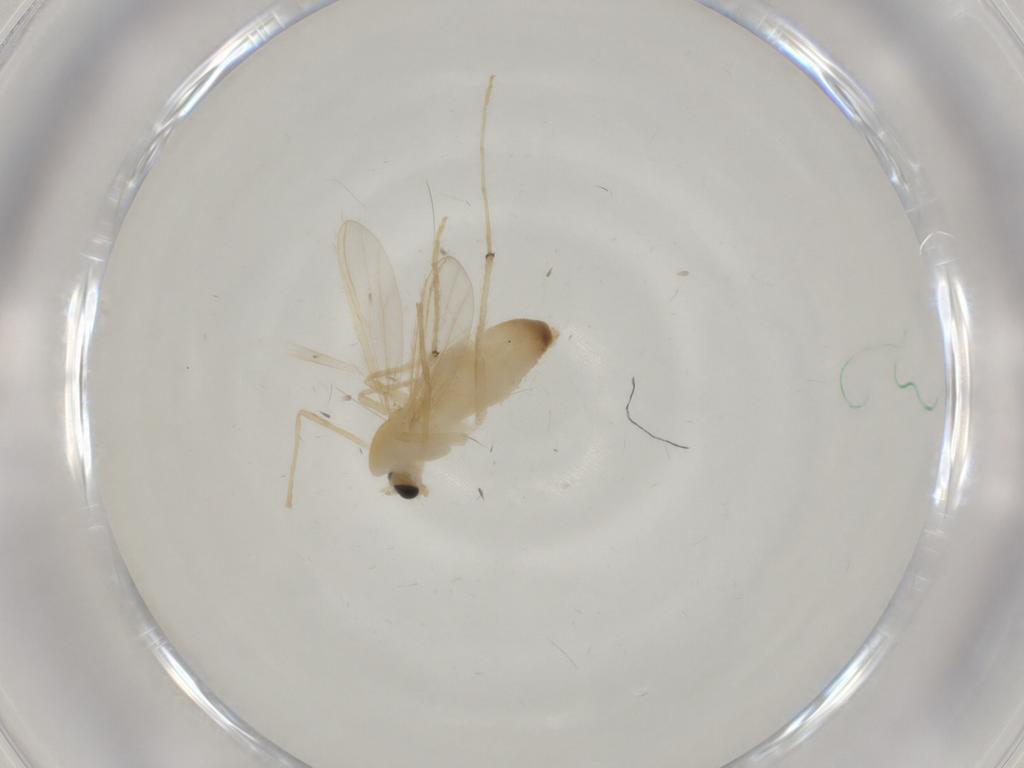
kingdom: Animalia
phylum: Arthropoda
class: Insecta
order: Diptera
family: Chironomidae
